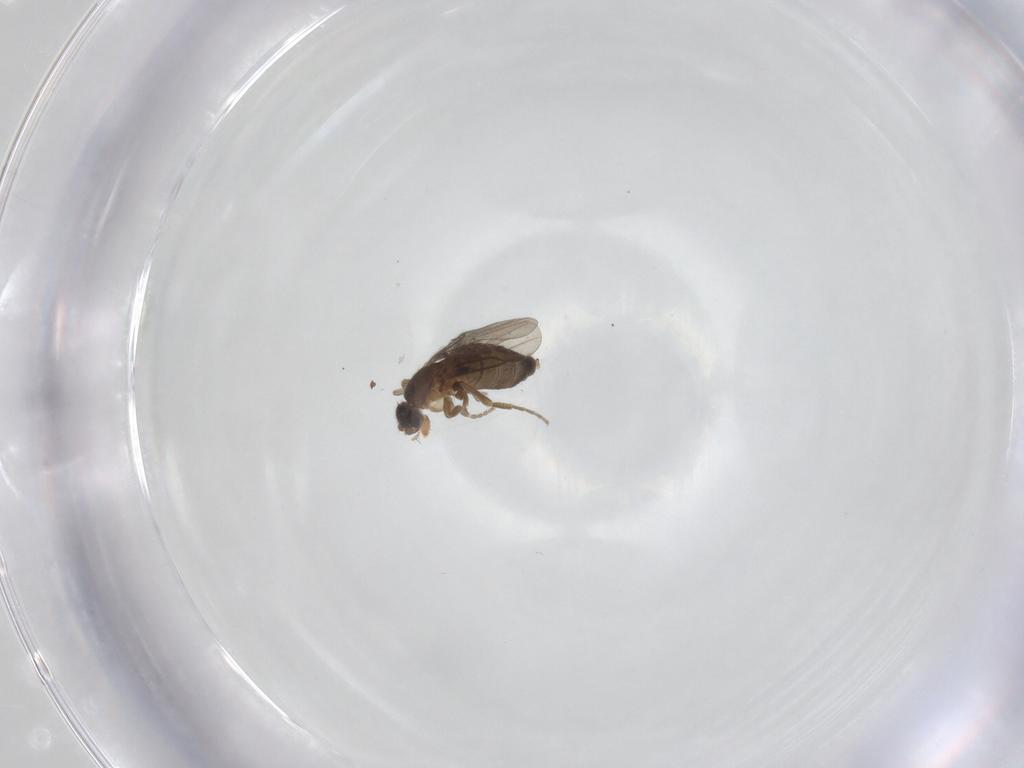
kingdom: Animalia
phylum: Arthropoda
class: Insecta
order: Diptera
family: Phoridae
